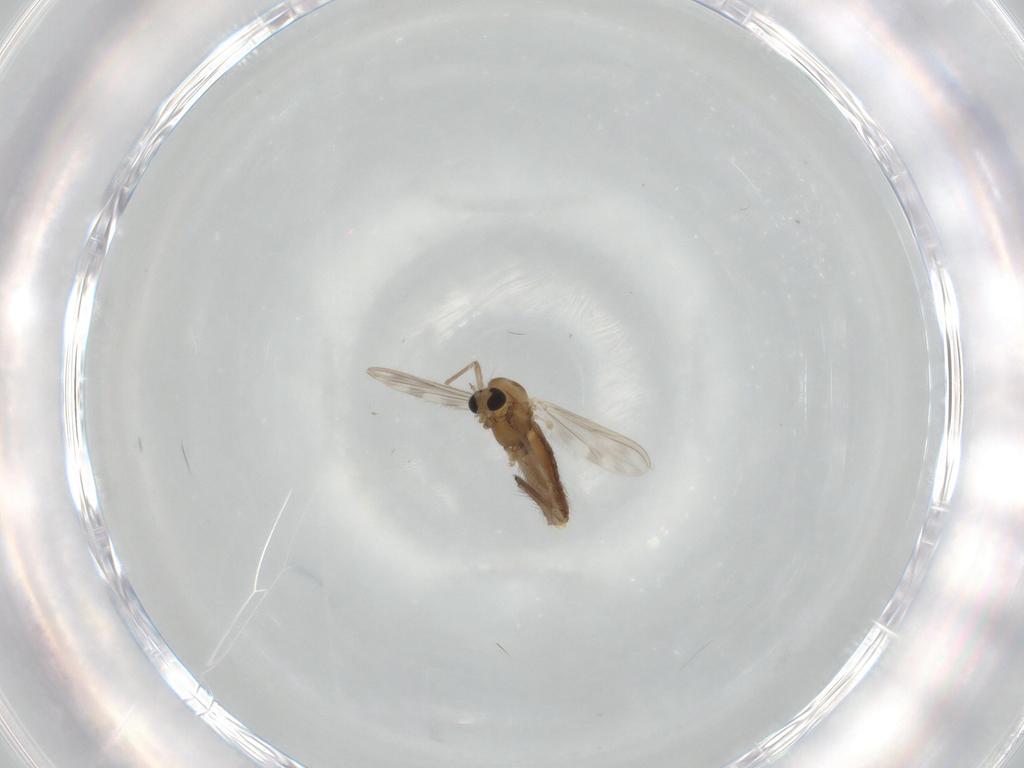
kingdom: Animalia
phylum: Arthropoda
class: Insecta
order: Diptera
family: Chironomidae
